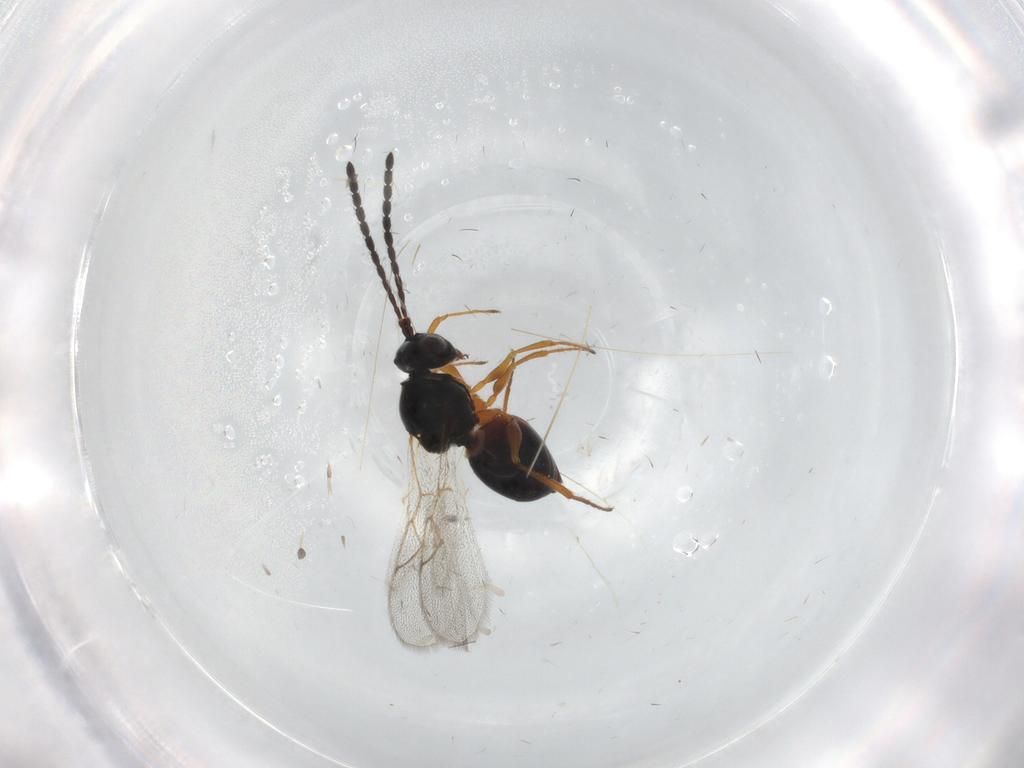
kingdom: Animalia
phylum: Arthropoda
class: Insecta
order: Hymenoptera
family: Figitidae
